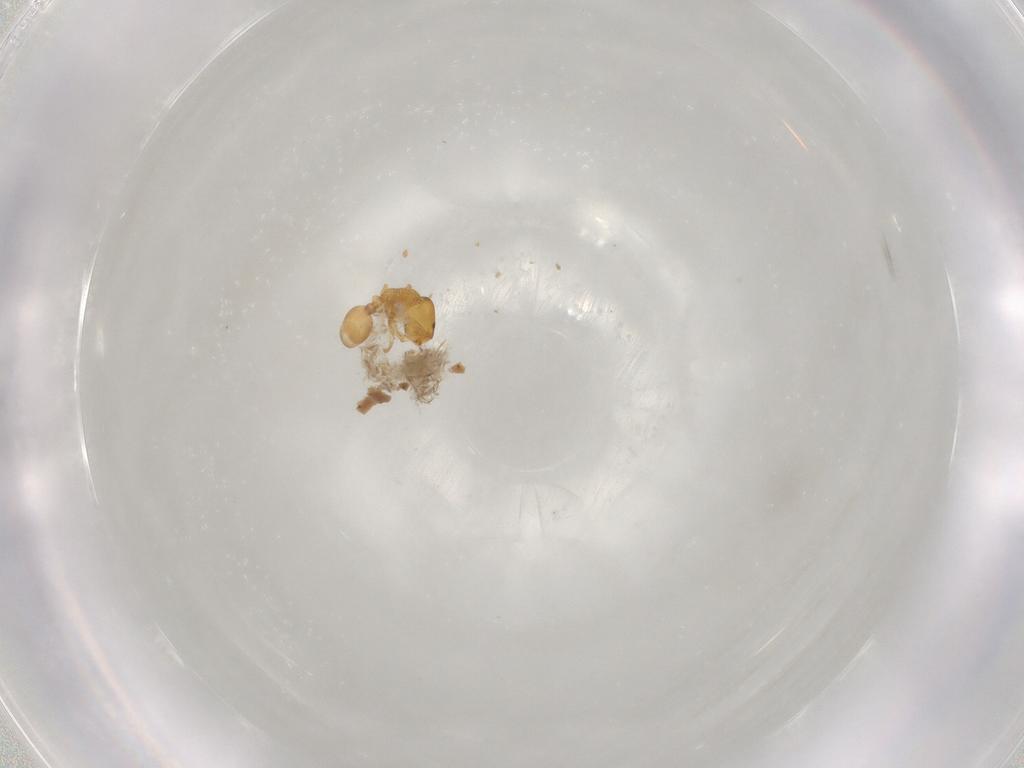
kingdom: Animalia
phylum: Arthropoda
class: Insecta
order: Hymenoptera
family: Formicidae
